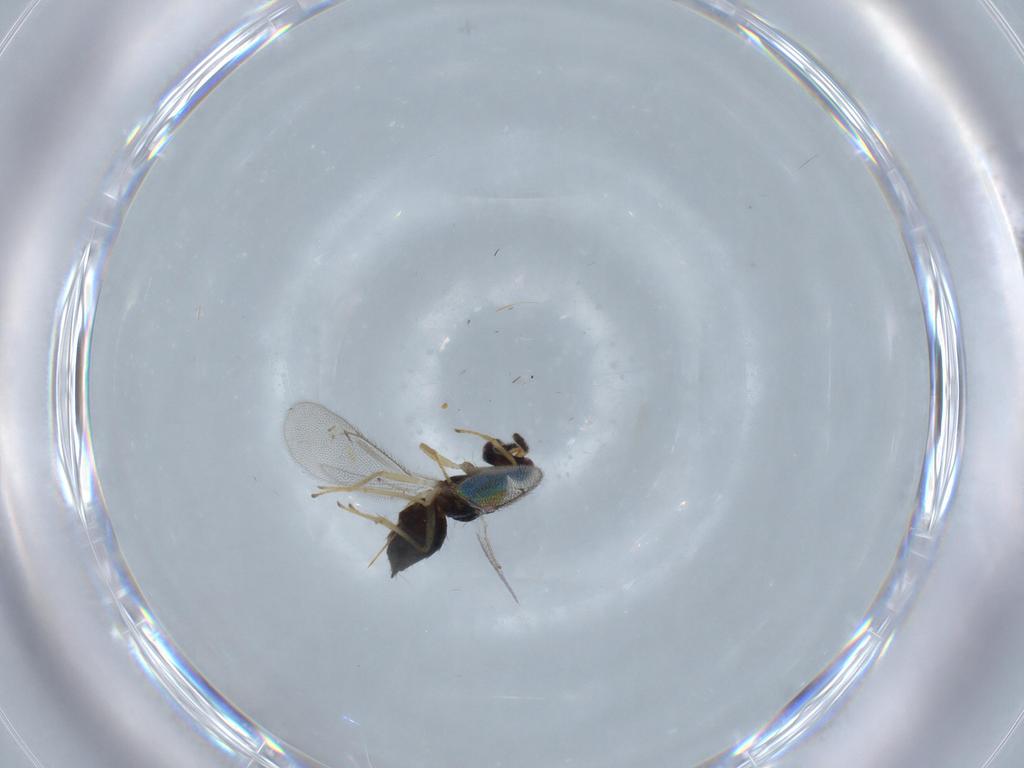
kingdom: Animalia
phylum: Arthropoda
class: Insecta
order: Hymenoptera
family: Eulophidae
